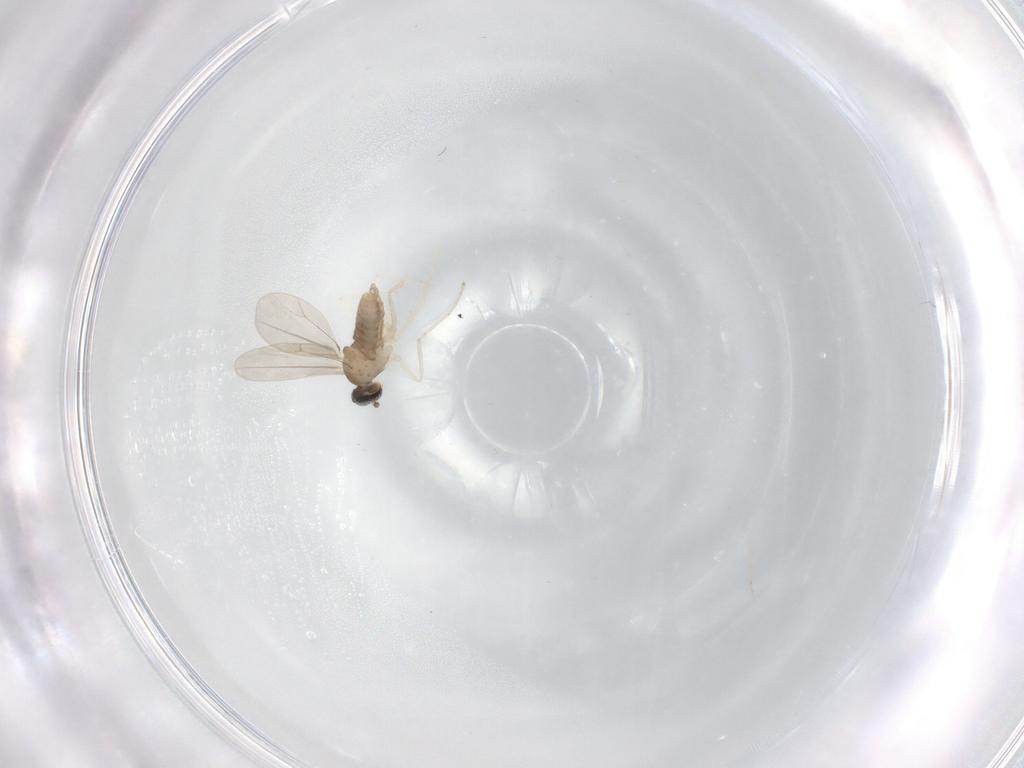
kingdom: Animalia
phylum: Arthropoda
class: Insecta
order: Diptera
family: Cecidomyiidae
